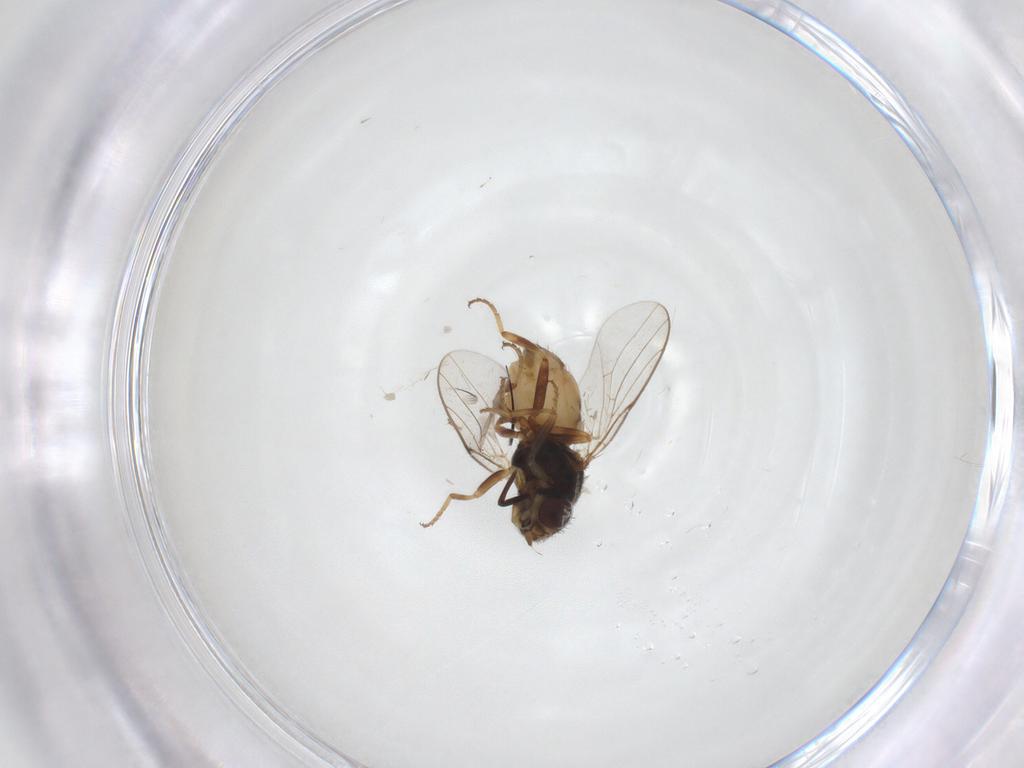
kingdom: Animalia
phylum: Arthropoda
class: Insecta
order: Diptera
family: Chloropidae
